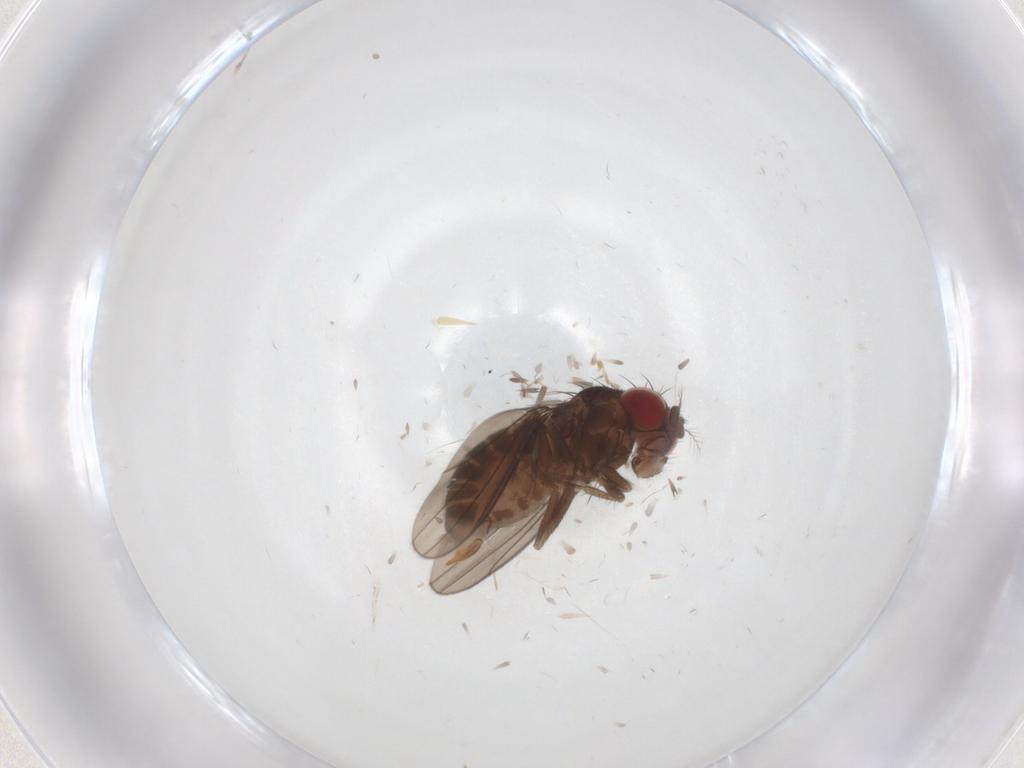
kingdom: Animalia
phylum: Arthropoda
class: Insecta
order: Diptera
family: Drosophilidae
